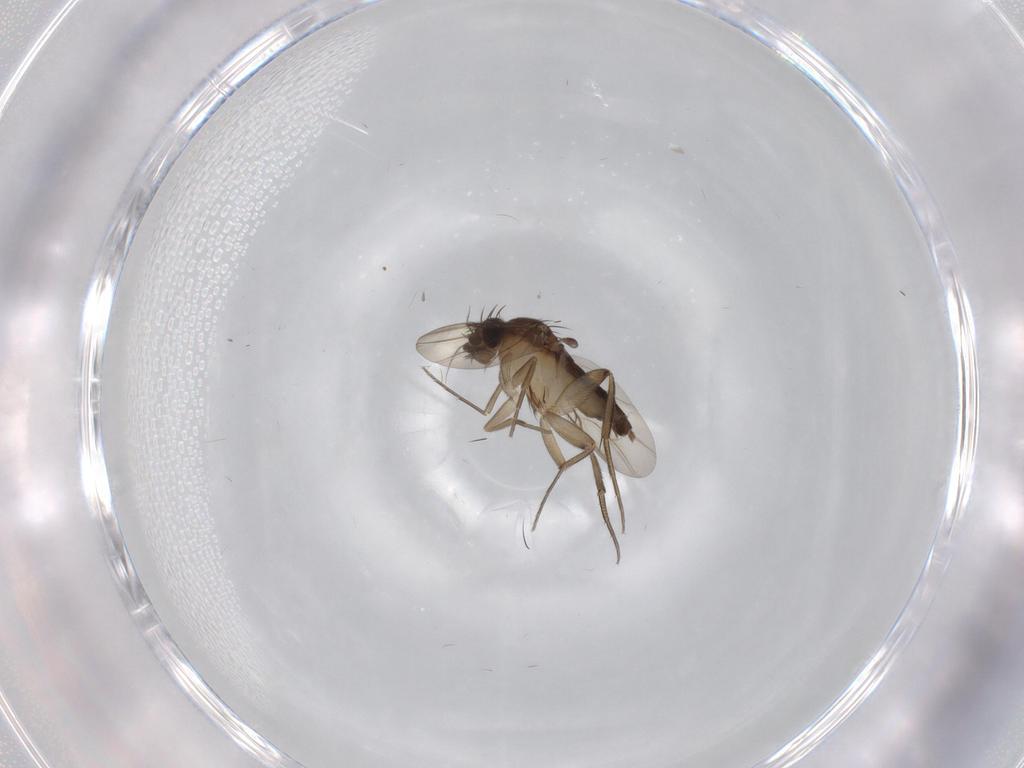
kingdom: Animalia
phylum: Arthropoda
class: Insecta
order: Diptera
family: Phoridae
